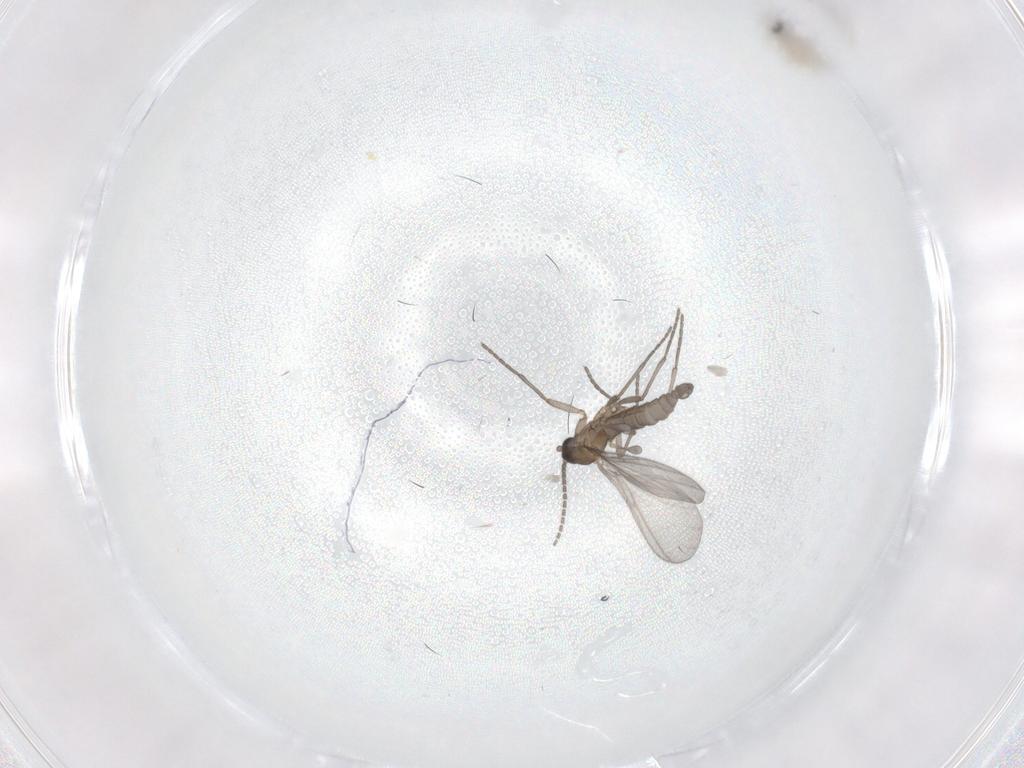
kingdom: Animalia
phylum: Arthropoda
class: Insecta
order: Diptera
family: Sciaridae
